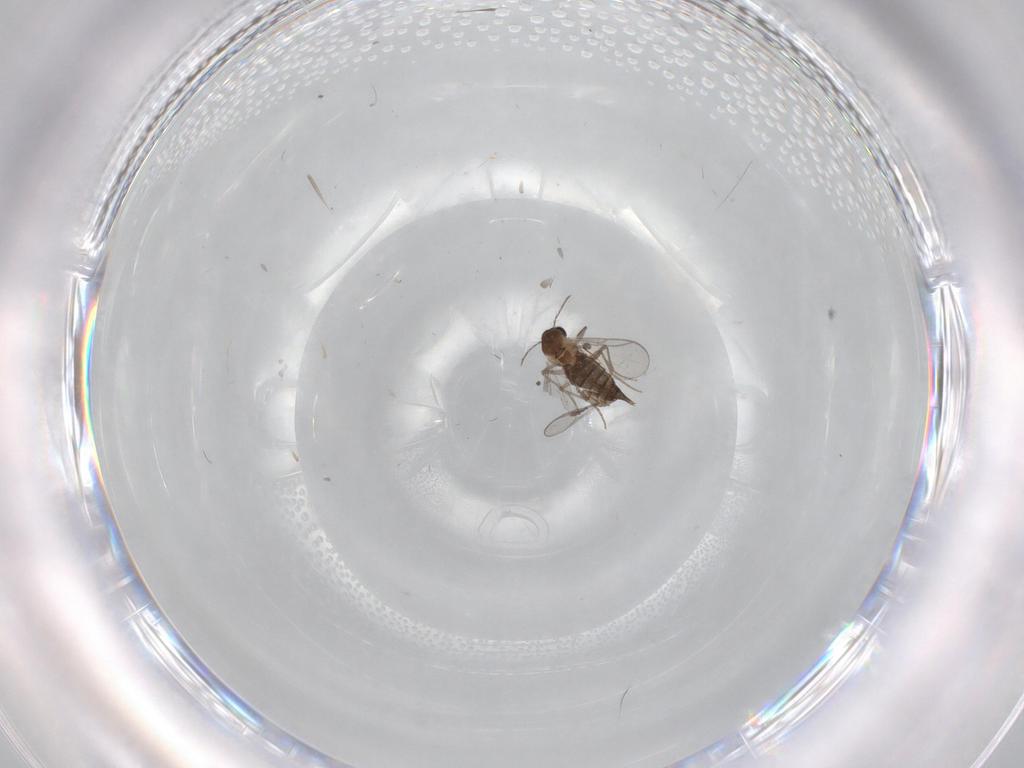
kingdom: Animalia
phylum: Arthropoda
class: Insecta
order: Diptera
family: Chironomidae
